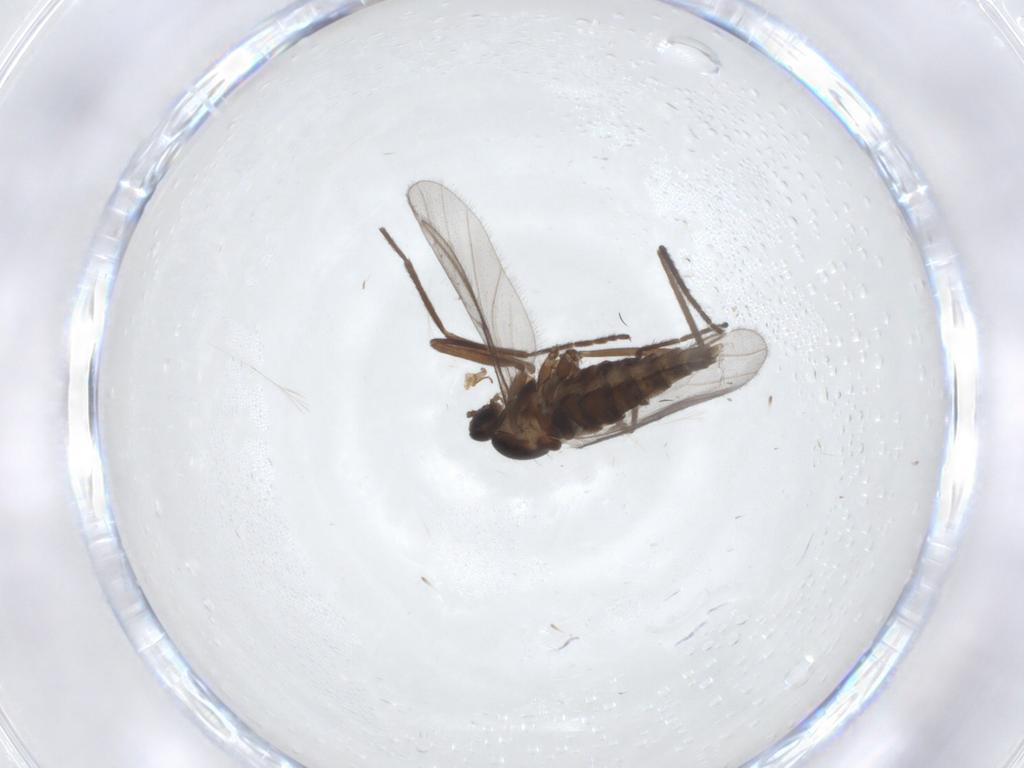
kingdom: Animalia
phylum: Arthropoda
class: Insecta
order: Diptera
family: Cecidomyiidae
